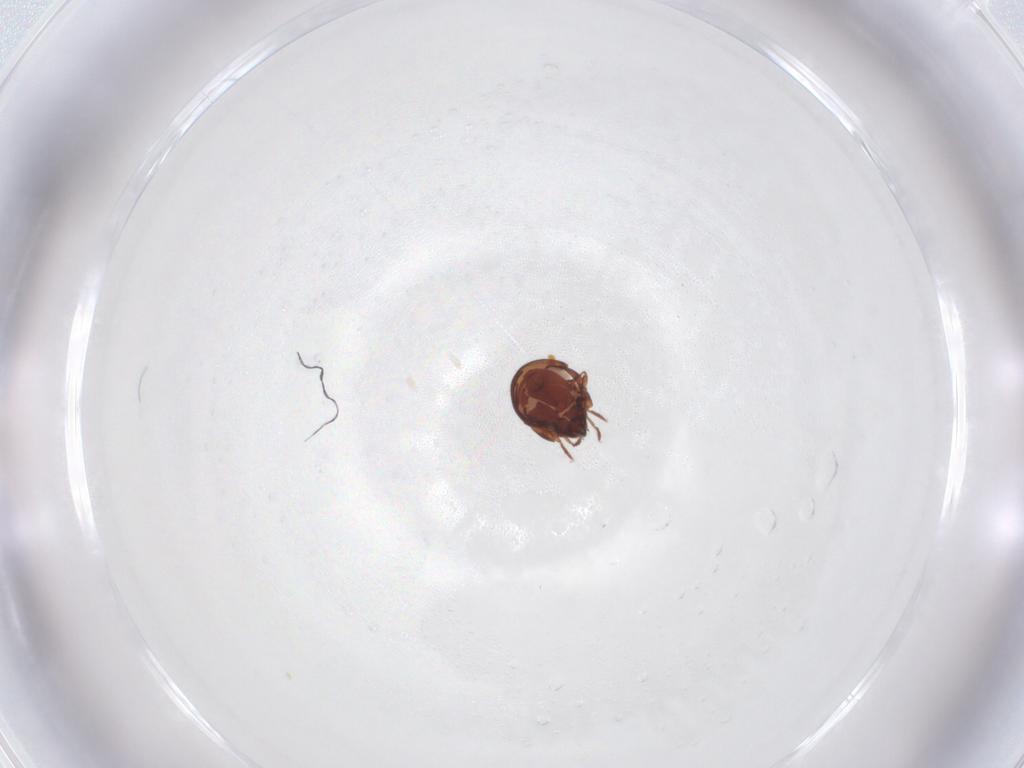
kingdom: Animalia
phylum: Arthropoda
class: Arachnida
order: Sarcoptiformes
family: Humerobatidae
